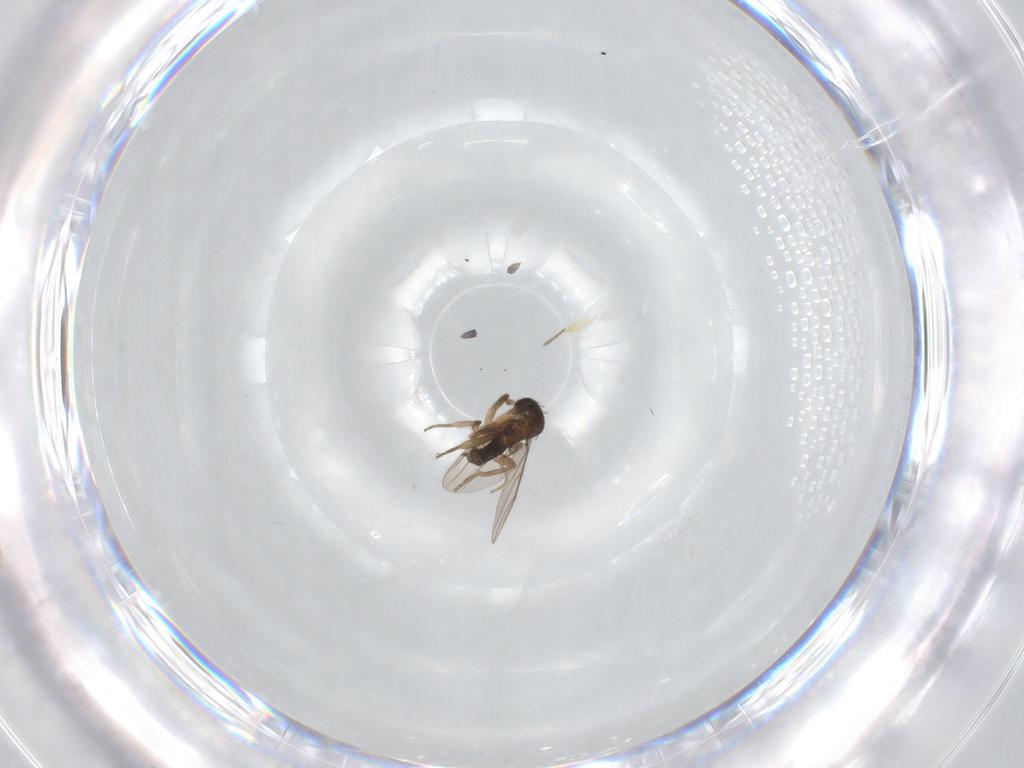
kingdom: Animalia
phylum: Arthropoda
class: Insecta
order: Diptera
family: Phoridae
